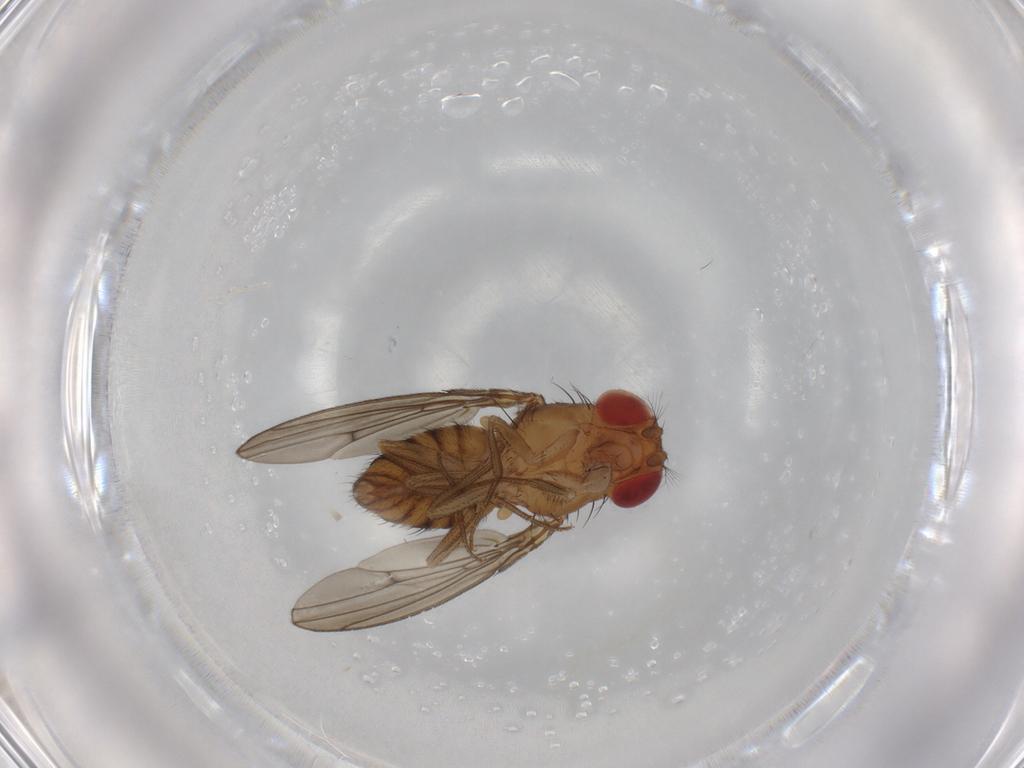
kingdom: Animalia
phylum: Arthropoda
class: Insecta
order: Diptera
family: Drosophilidae
